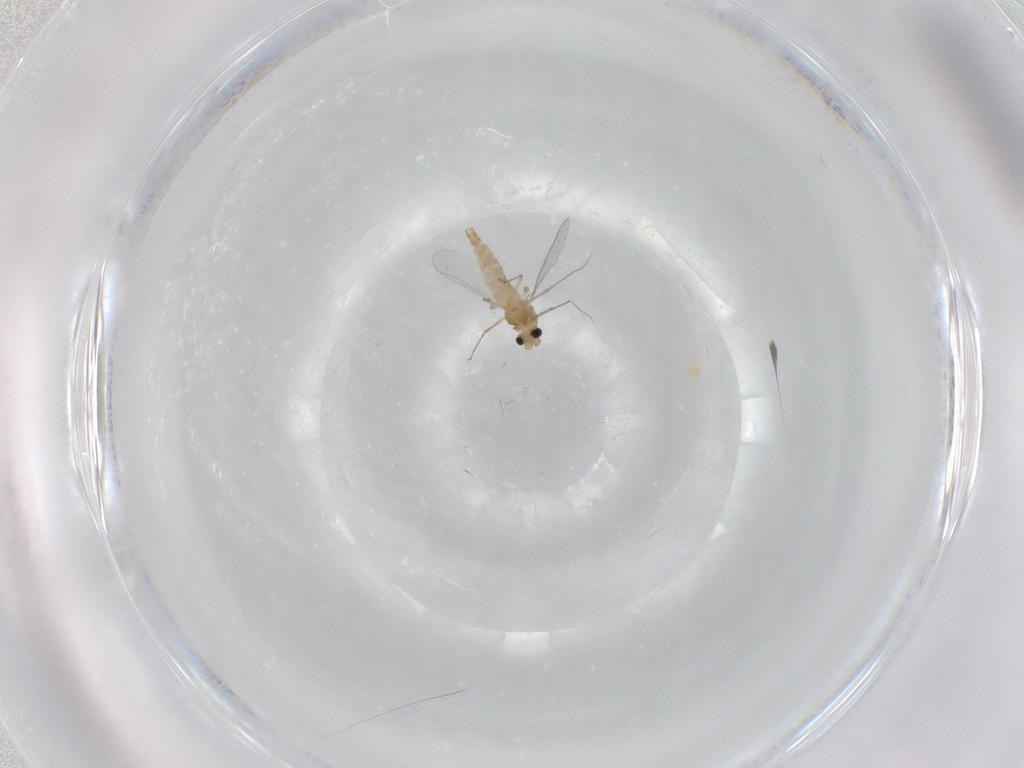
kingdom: Animalia
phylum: Arthropoda
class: Insecta
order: Diptera
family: Chironomidae
